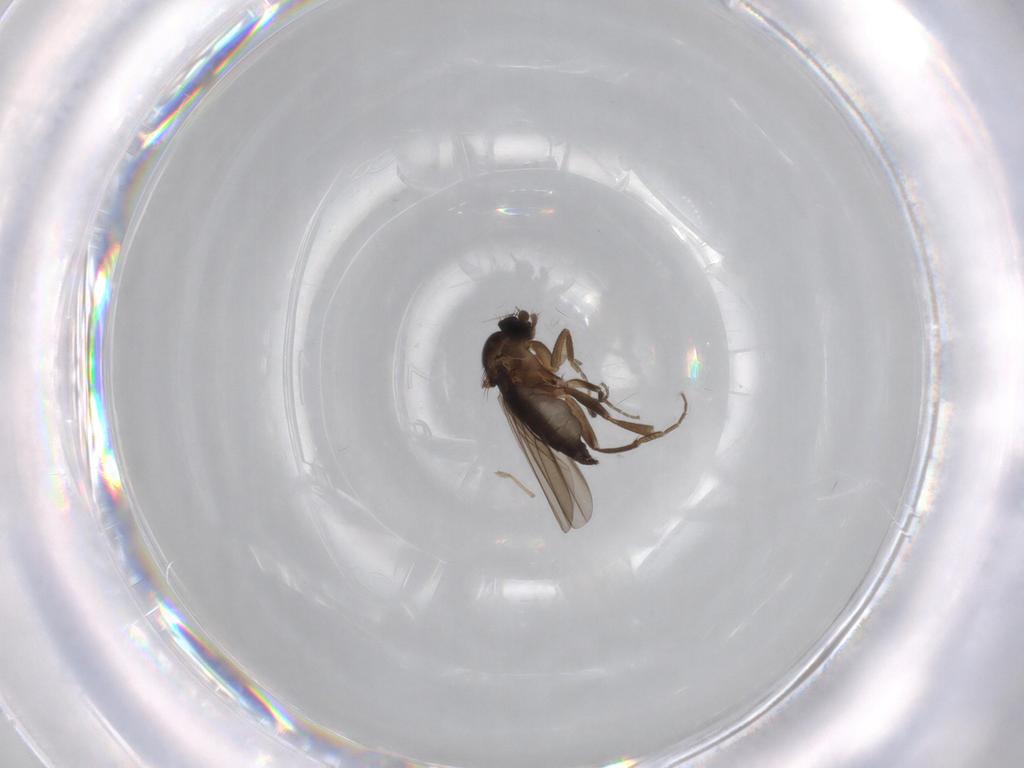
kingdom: Animalia
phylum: Arthropoda
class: Insecta
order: Diptera
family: Phoridae
